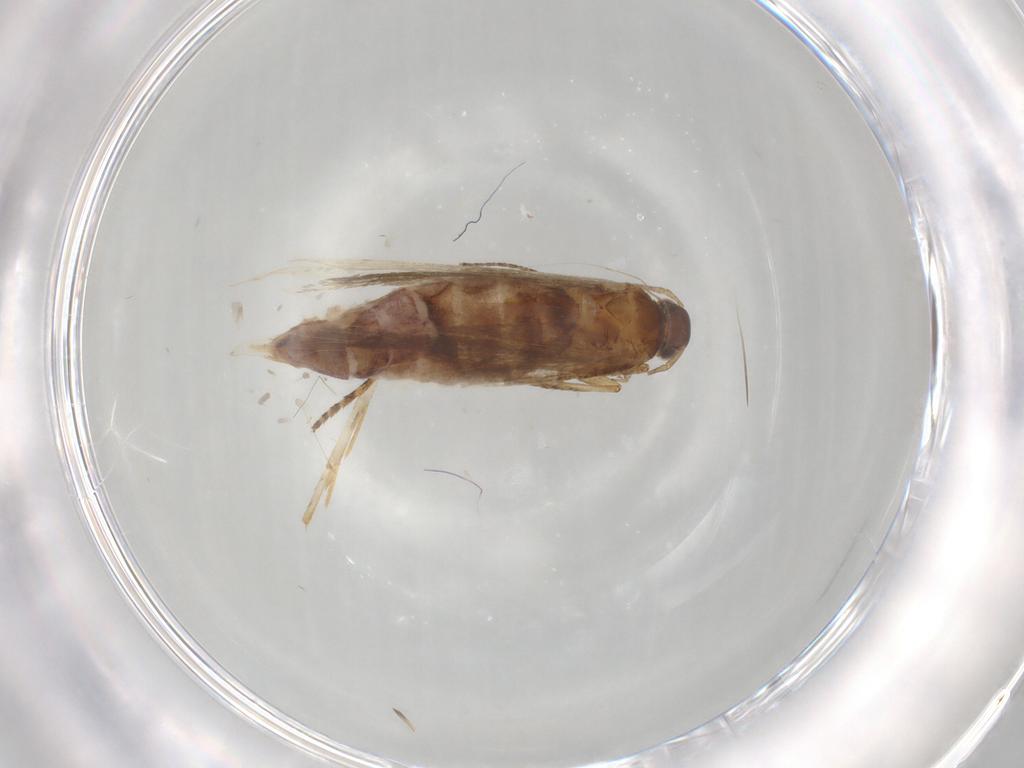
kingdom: Animalia
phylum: Arthropoda
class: Insecta
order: Lepidoptera
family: Gelechiidae
